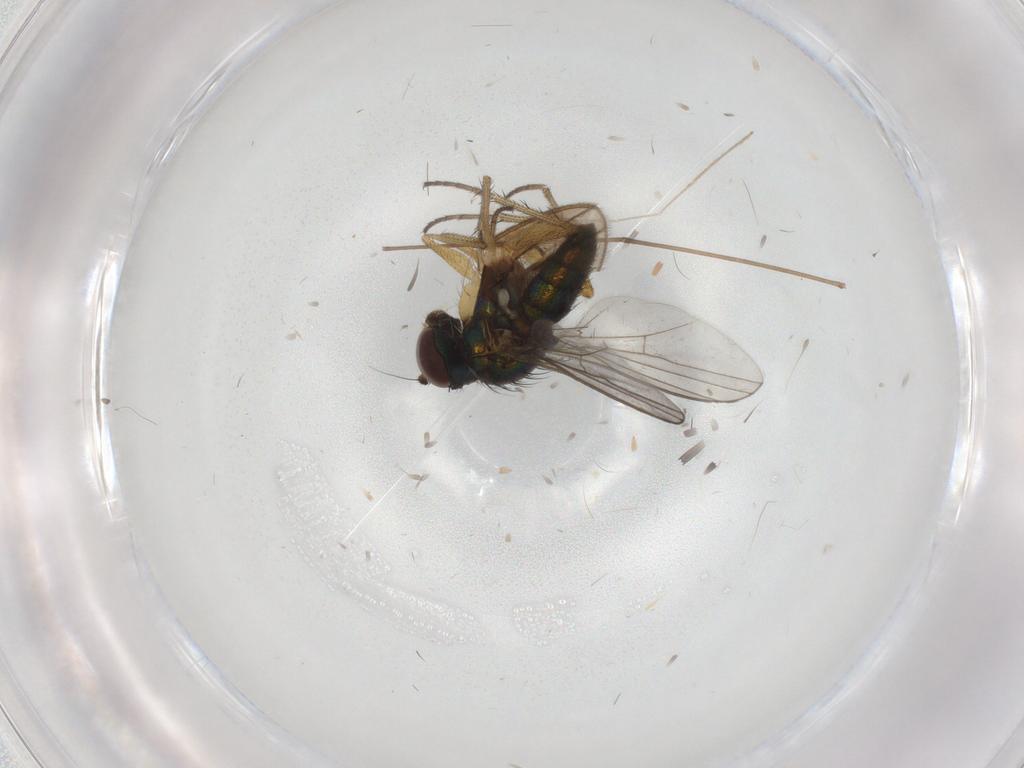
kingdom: Animalia
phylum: Arthropoda
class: Insecta
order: Diptera
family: Chironomidae
